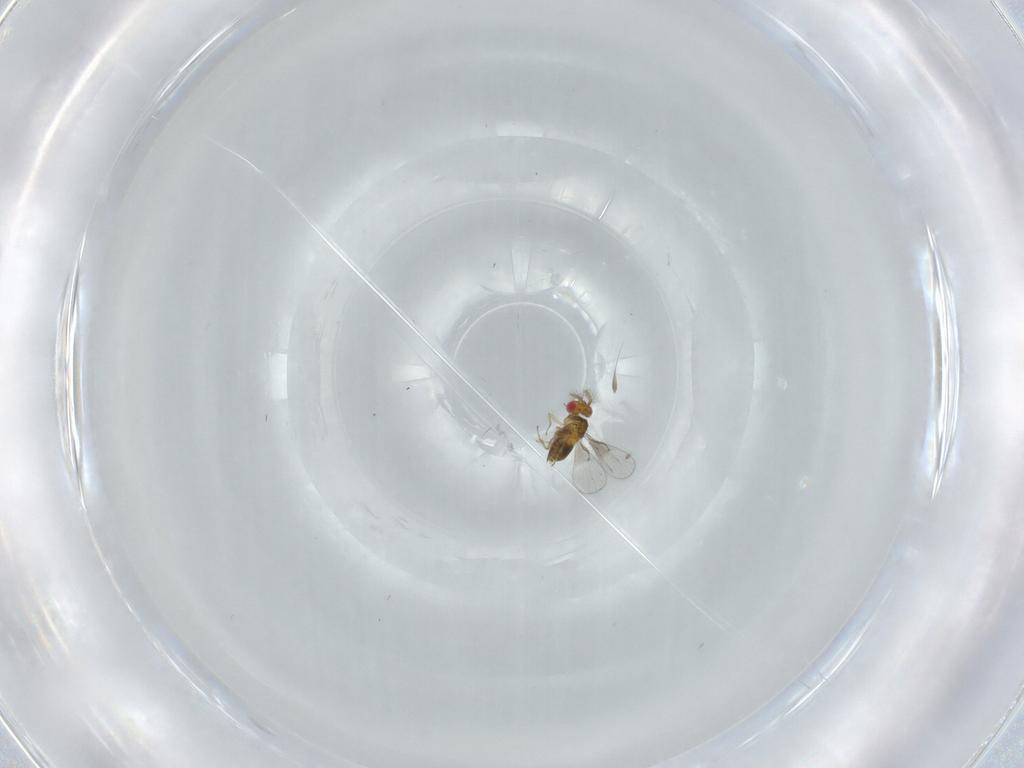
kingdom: Animalia
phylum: Arthropoda
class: Insecta
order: Hymenoptera
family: Trichogrammatidae
